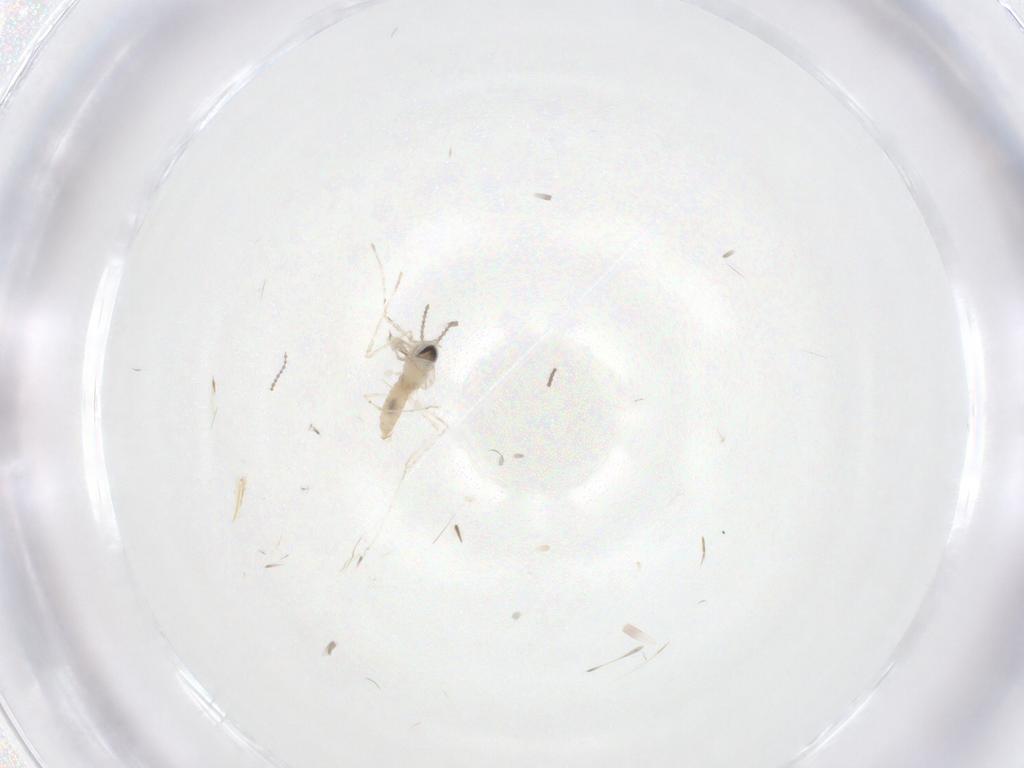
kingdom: Animalia
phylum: Arthropoda
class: Insecta
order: Diptera
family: Cecidomyiidae
